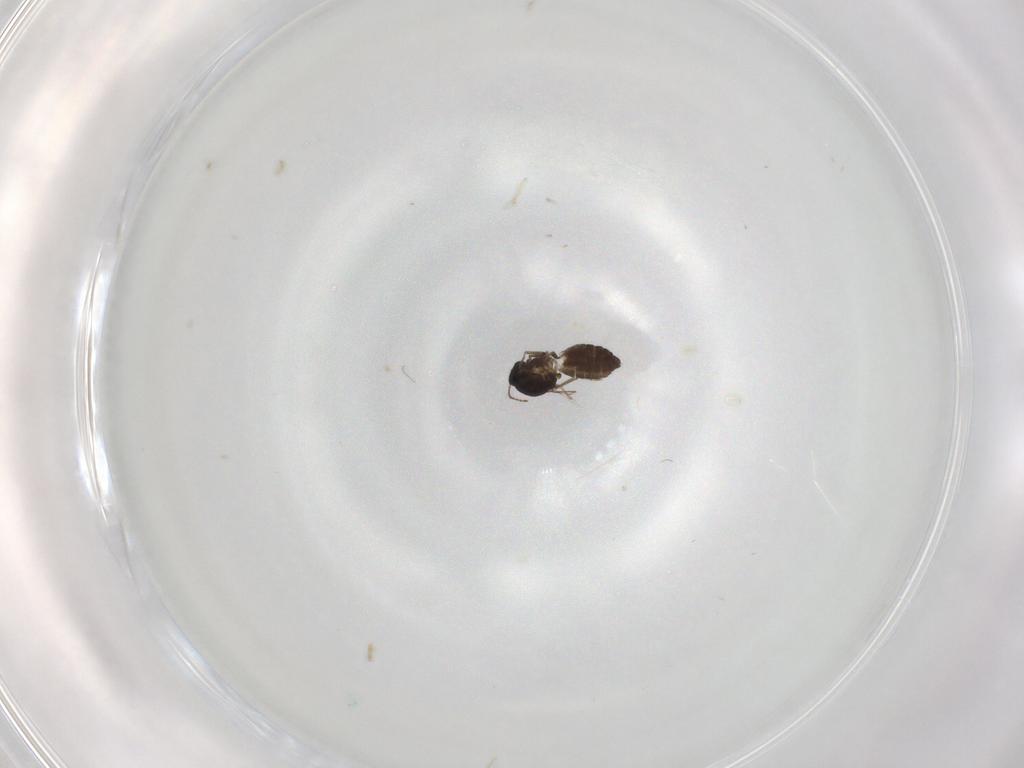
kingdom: Animalia
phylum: Arthropoda
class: Insecta
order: Diptera
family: Ceratopogonidae
